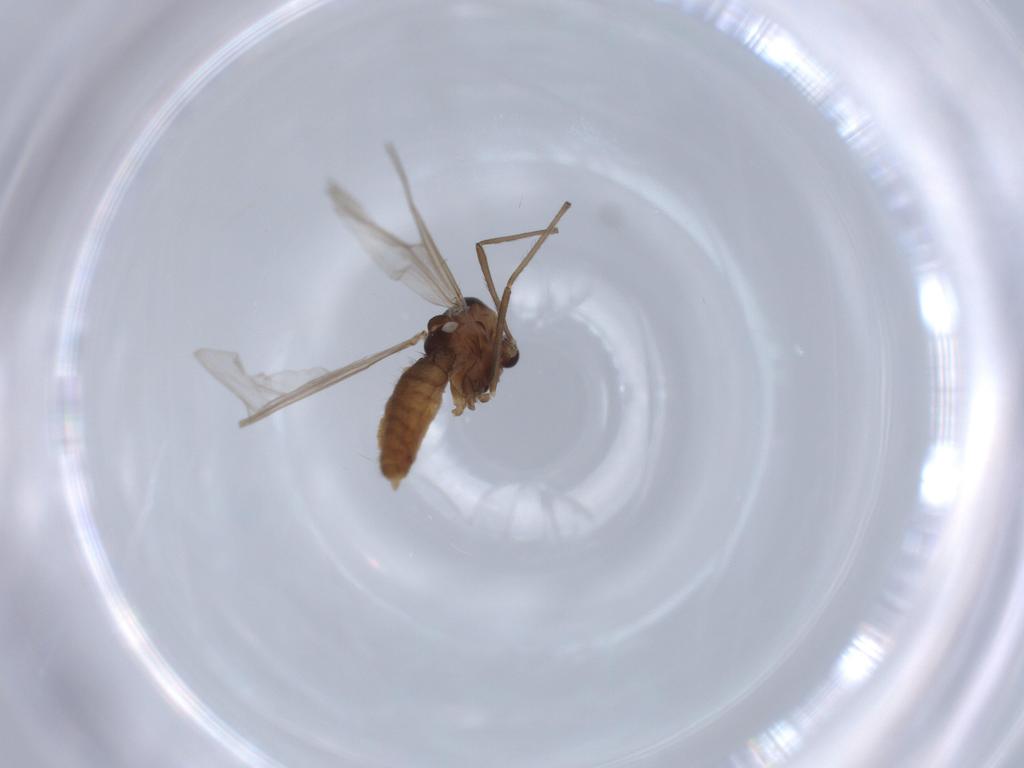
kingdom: Animalia
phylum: Arthropoda
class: Insecta
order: Diptera
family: Chironomidae
